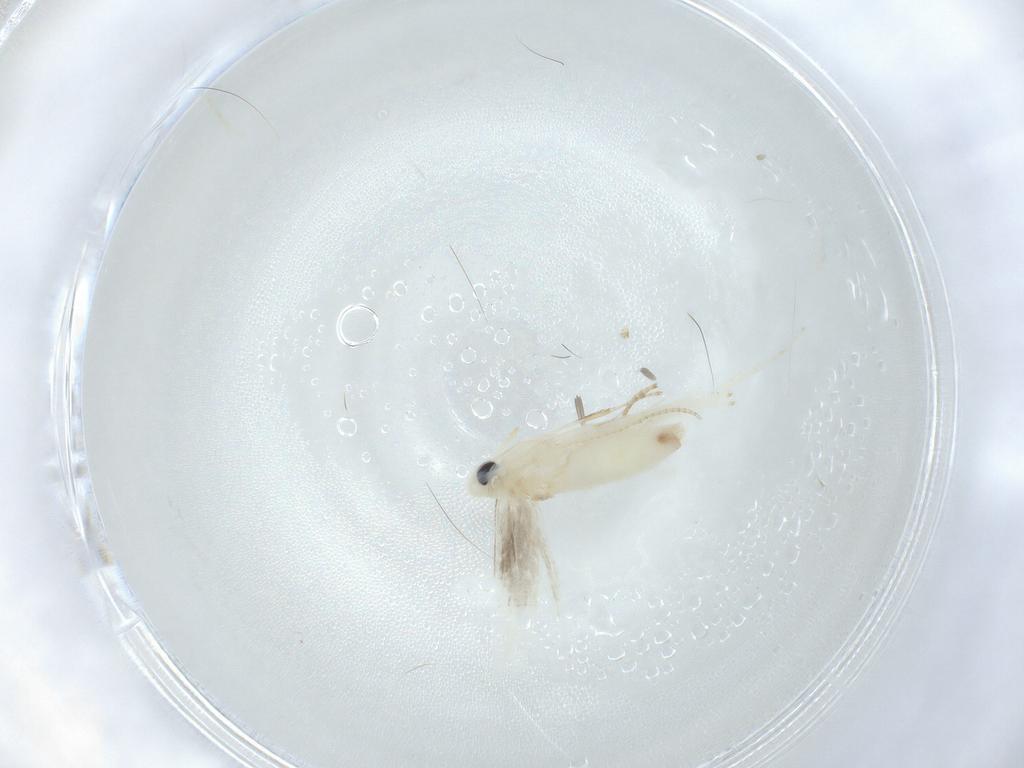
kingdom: Animalia
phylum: Arthropoda
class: Insecta
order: Lepidoptera
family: Gracillariidae
